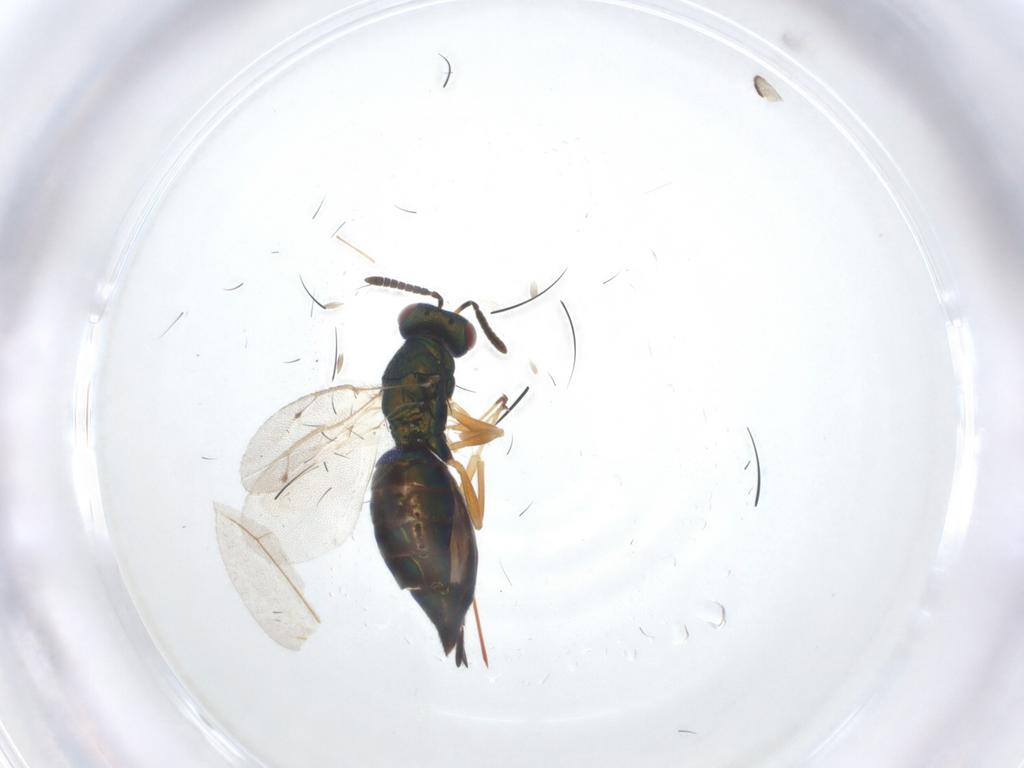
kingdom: Animalia
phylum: Arthropoda
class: Insecta
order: Hymenoptera
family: Pteromalidae
